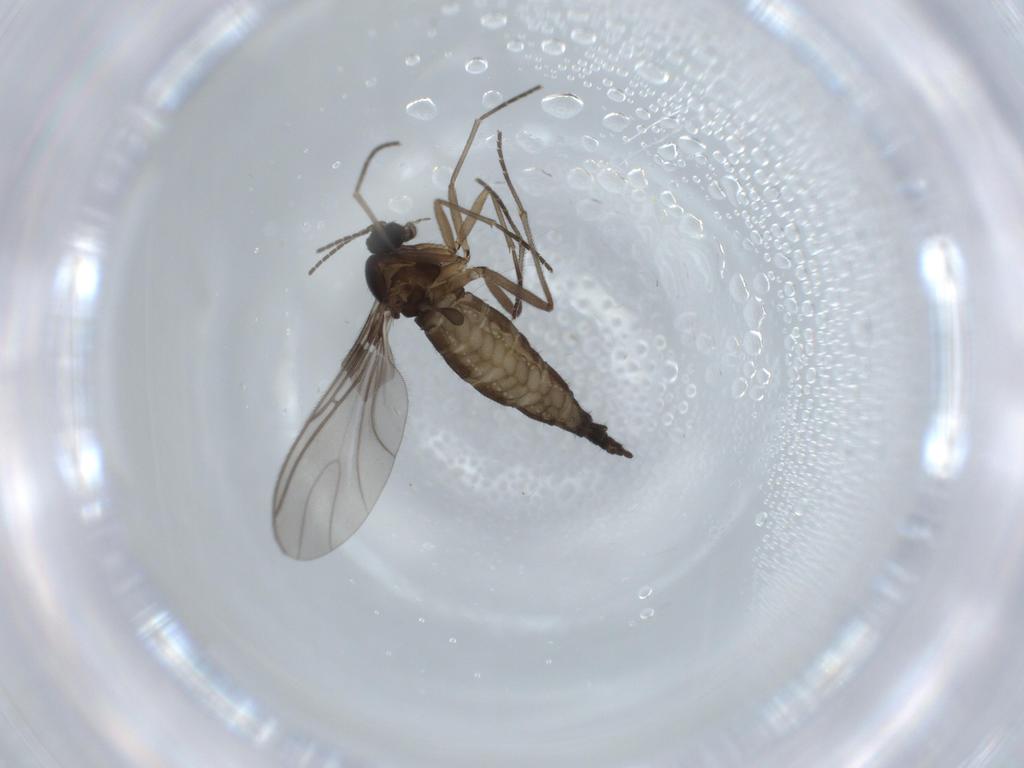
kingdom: Animalia
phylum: Arthropoda
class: Insecta
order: Diptera
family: Sciaridae
